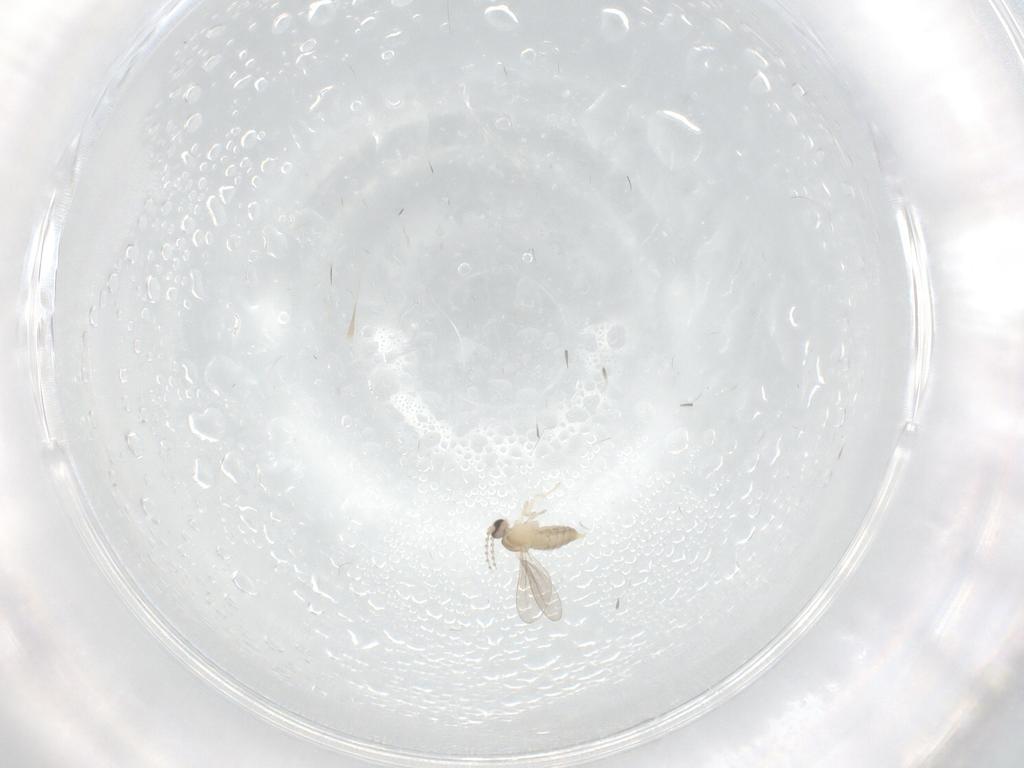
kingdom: Animalia
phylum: Arthropoda
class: Insecta
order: Diptera
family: Cecidomyiidae
